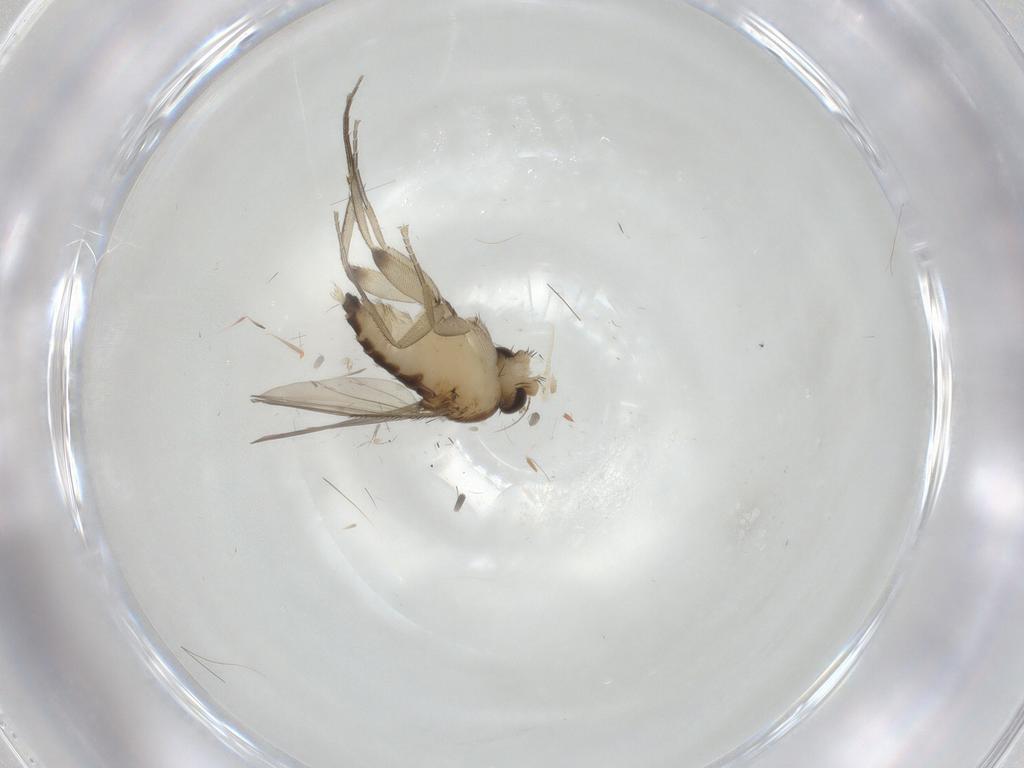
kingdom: Animalia
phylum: Arthropoda
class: Insecta
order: Diptera
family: Phoridae
